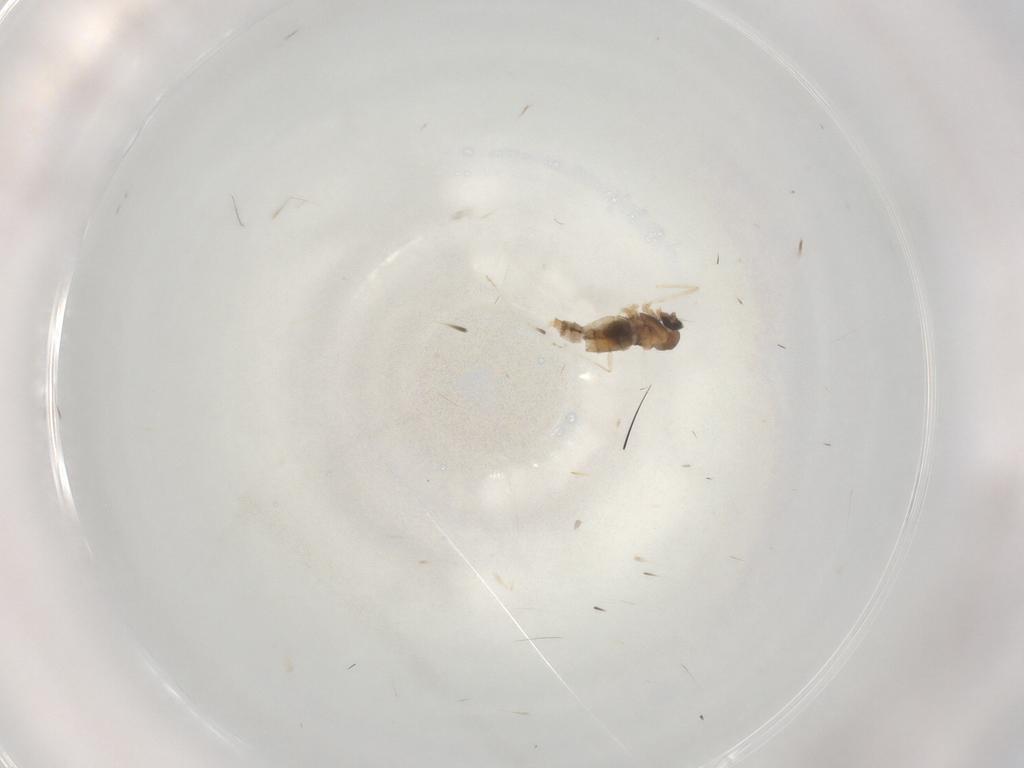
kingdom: Animalia
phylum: Arthropoda
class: Insecta
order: Diptera
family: Cecidomyiidae
